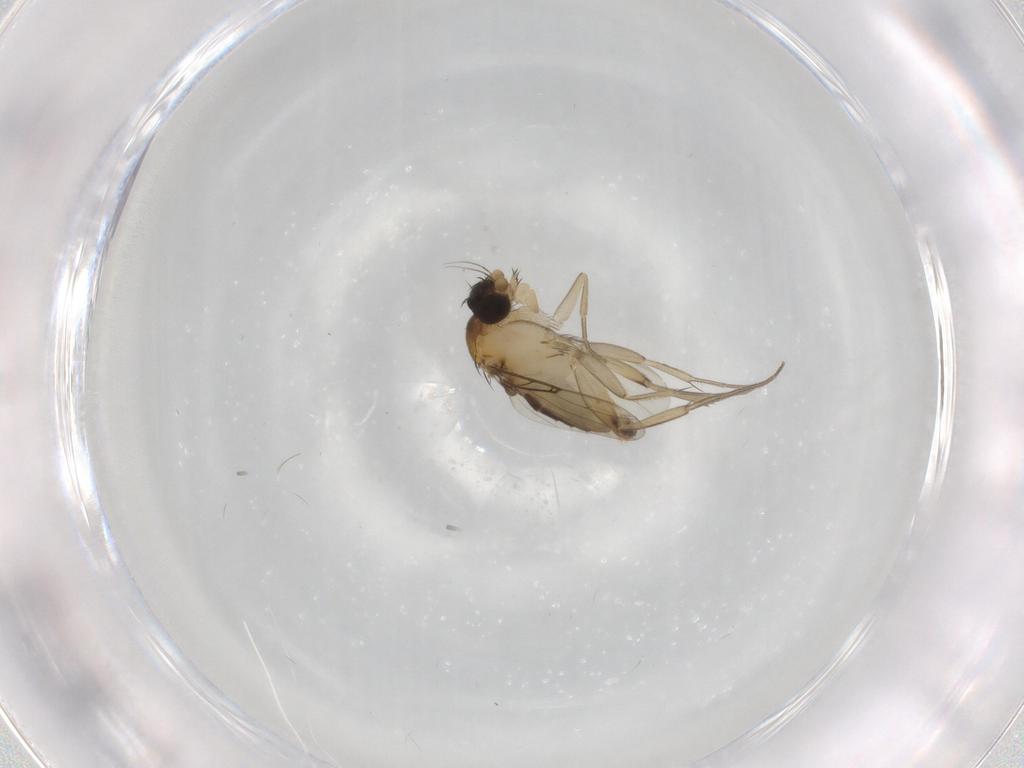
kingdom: Animalia
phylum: Arthropoda
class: Insecta
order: Diptera
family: Phoridae
